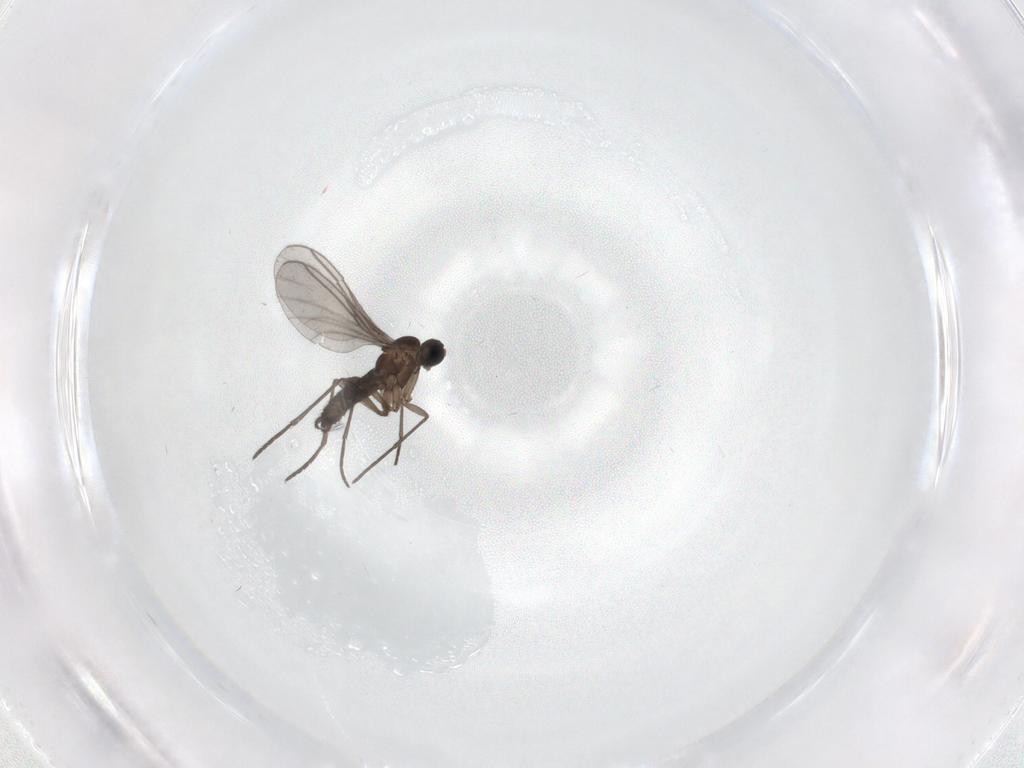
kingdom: Animalia
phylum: Arthropoda
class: Insecta
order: Diptera
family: Cecidomyiidae
